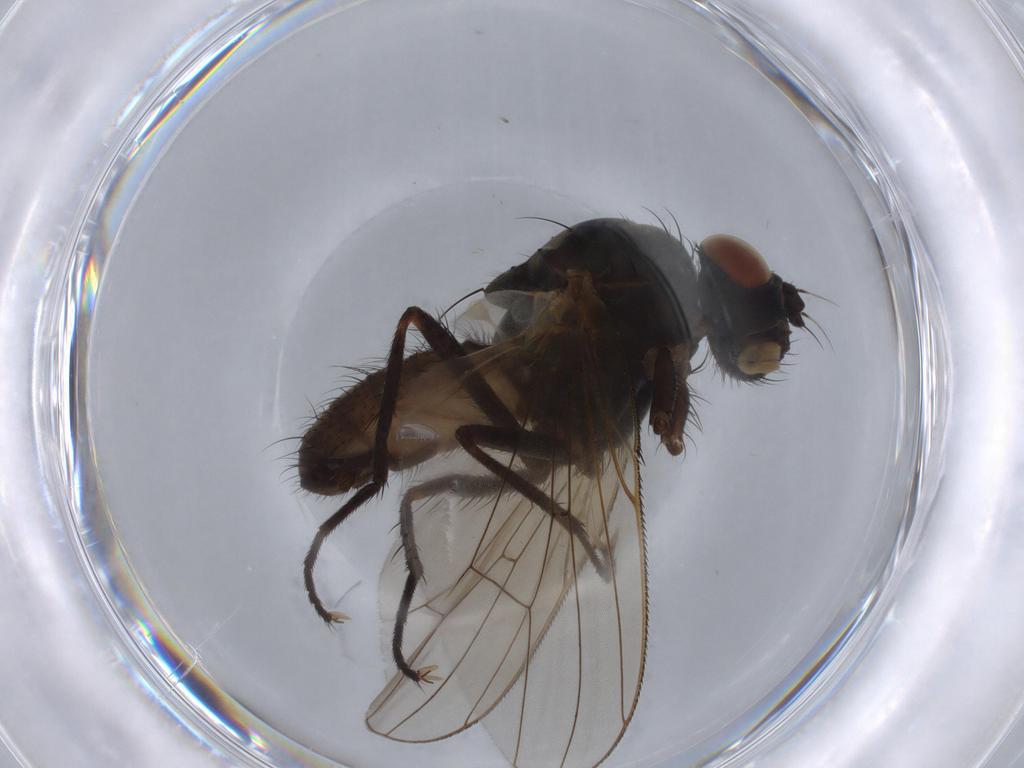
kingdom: Animalia
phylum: Arthropoda
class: Insecta
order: Diptera
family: Anthomyiidae
